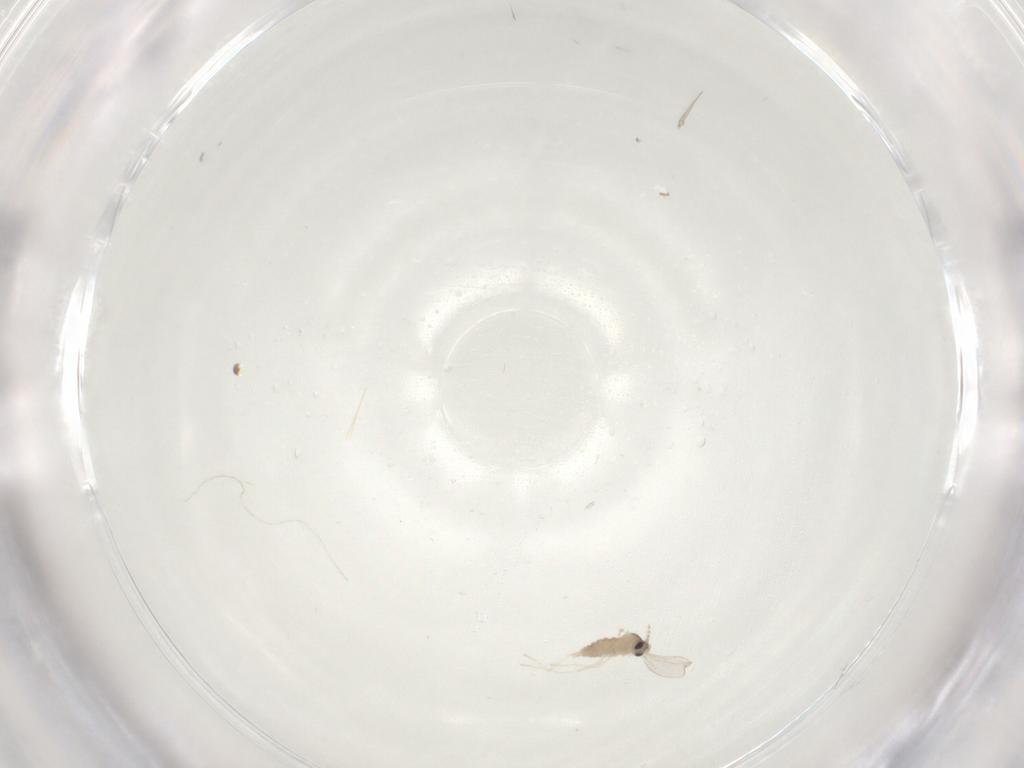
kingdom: Animalia
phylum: Arthropoda
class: Insecta
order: Diptera
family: Cecidomyiidae
